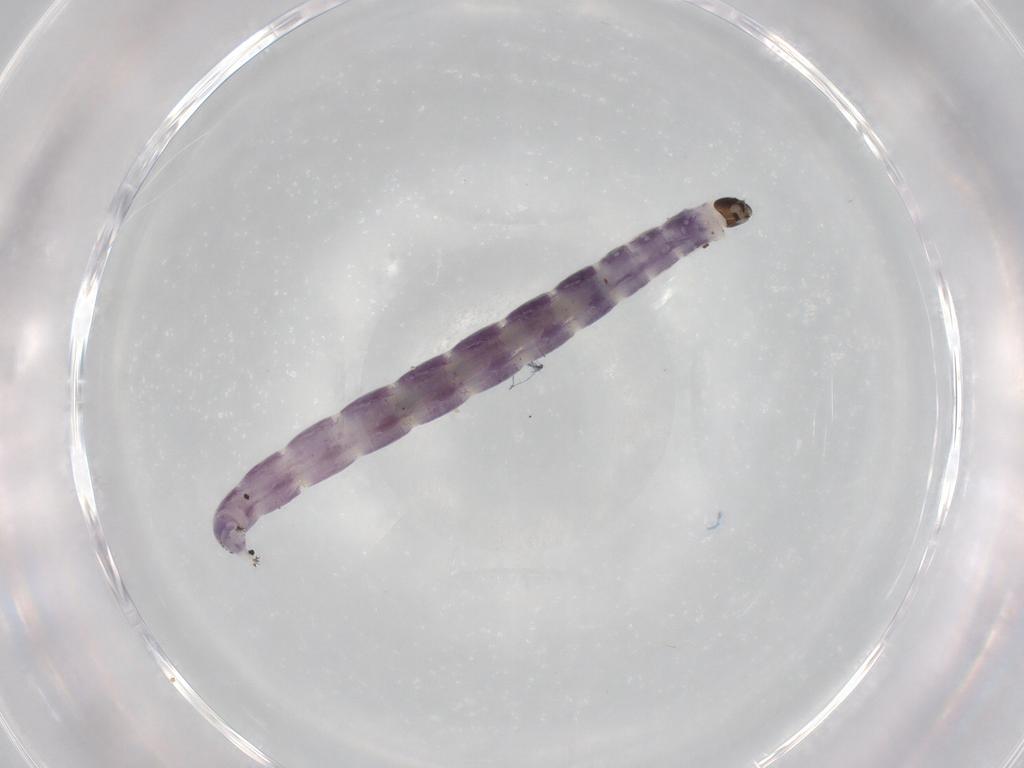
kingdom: Animalia
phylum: Arthropoda
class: Insecta
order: Diptera
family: Chironomidae
